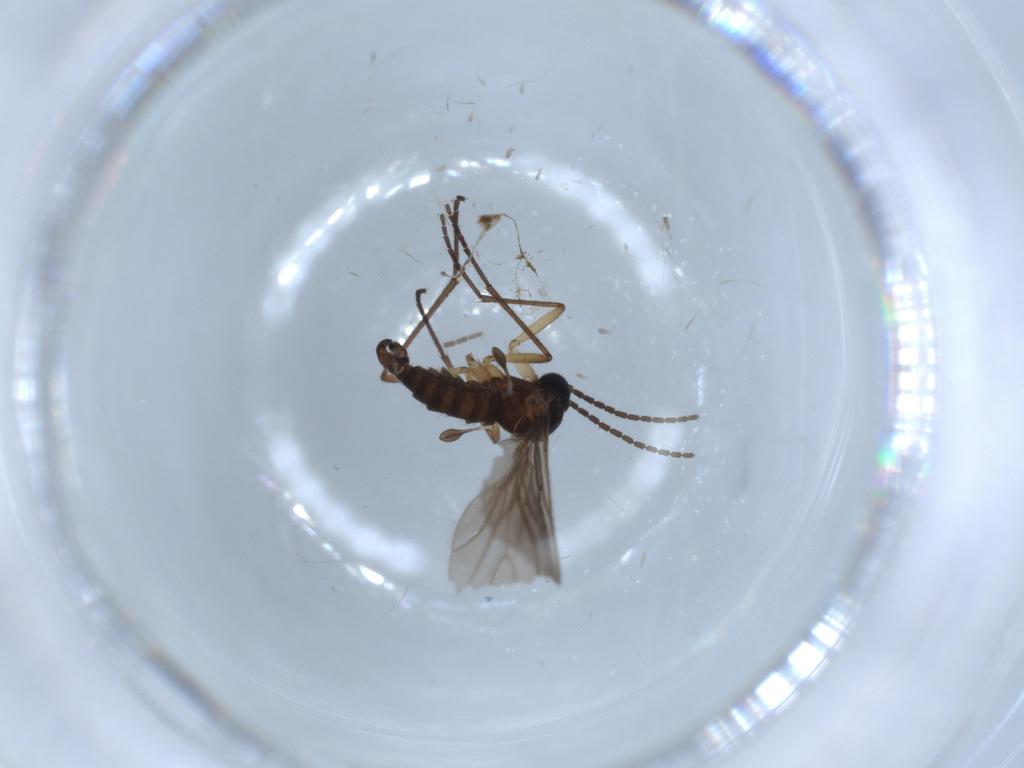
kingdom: Animalia
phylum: Arthropoda
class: Insecta
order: Diptera
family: Sciaridae
